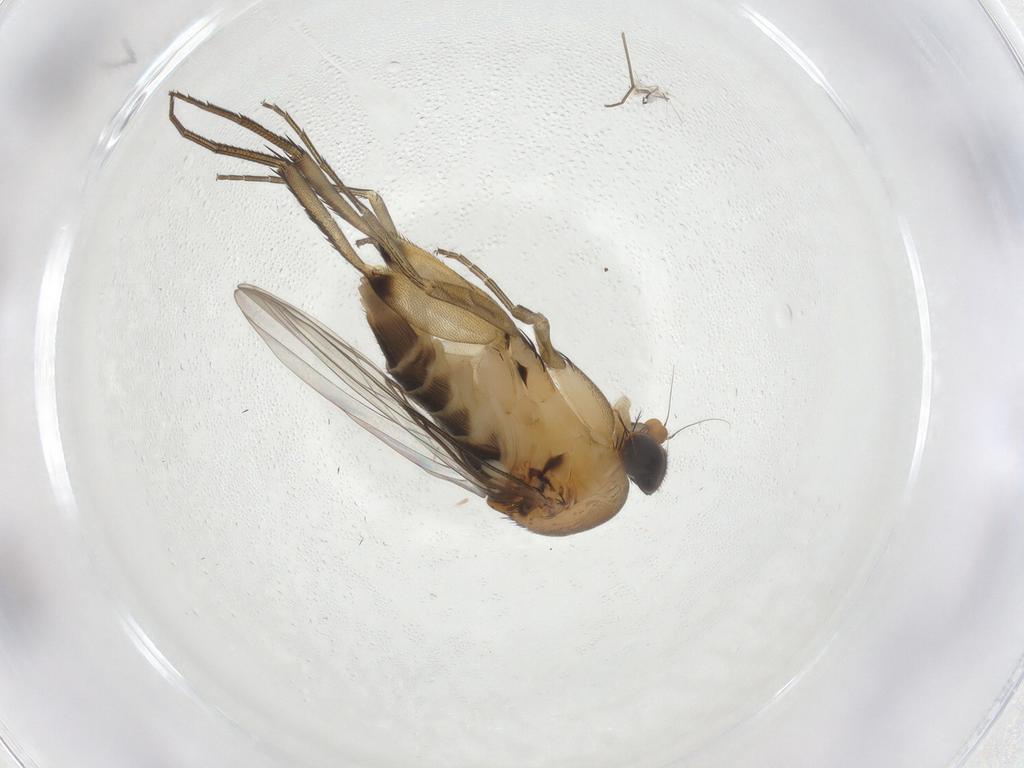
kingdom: Animalia
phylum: Arthropoda
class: Insecta
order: Diptera
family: Phoridae
